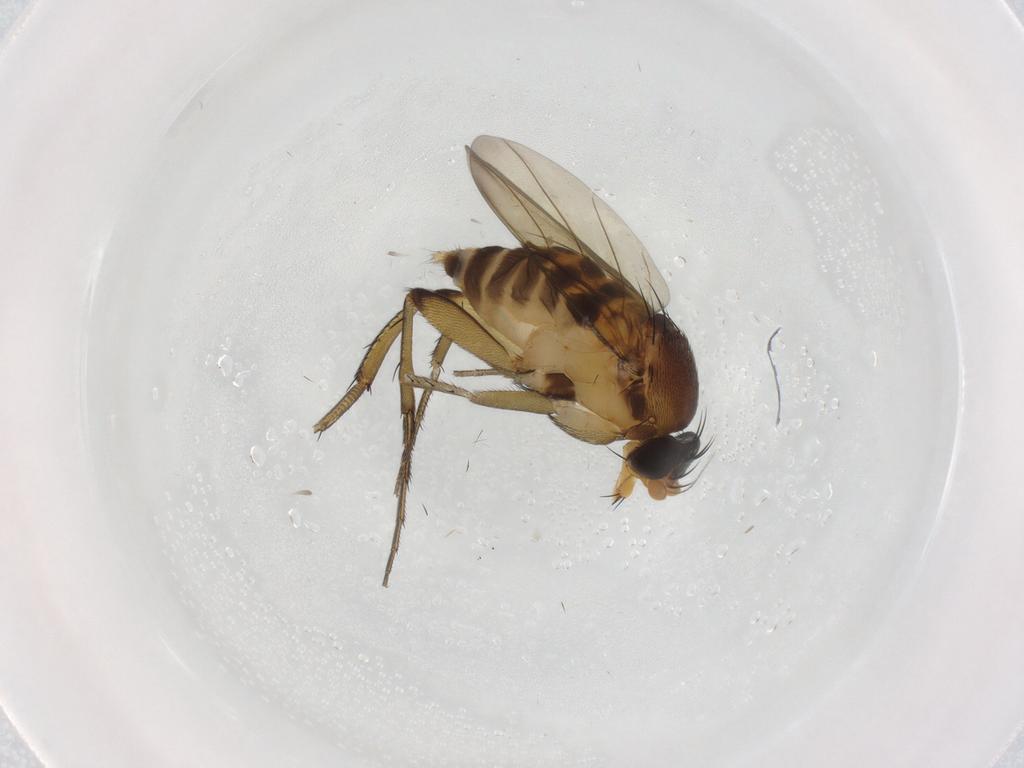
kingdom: Animalia
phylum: Arthropoda
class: Insecta
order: Diptera
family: Phoridae
